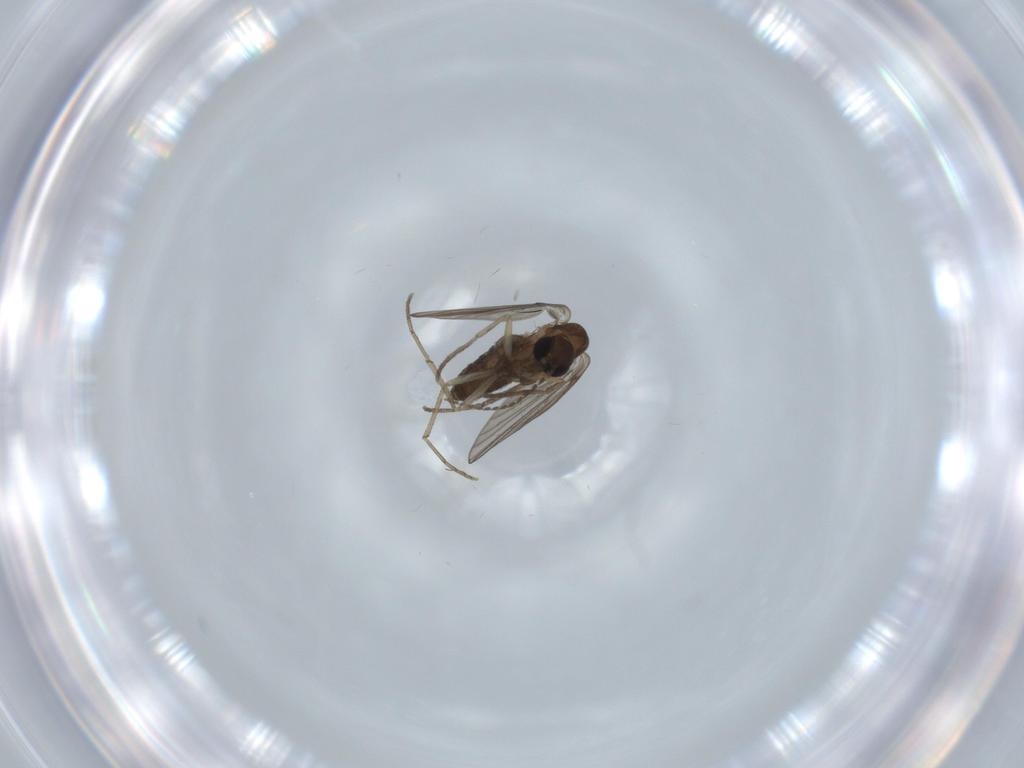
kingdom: Animalia
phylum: Arthropoda
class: Insecta
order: Diptera
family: Psychodidae
